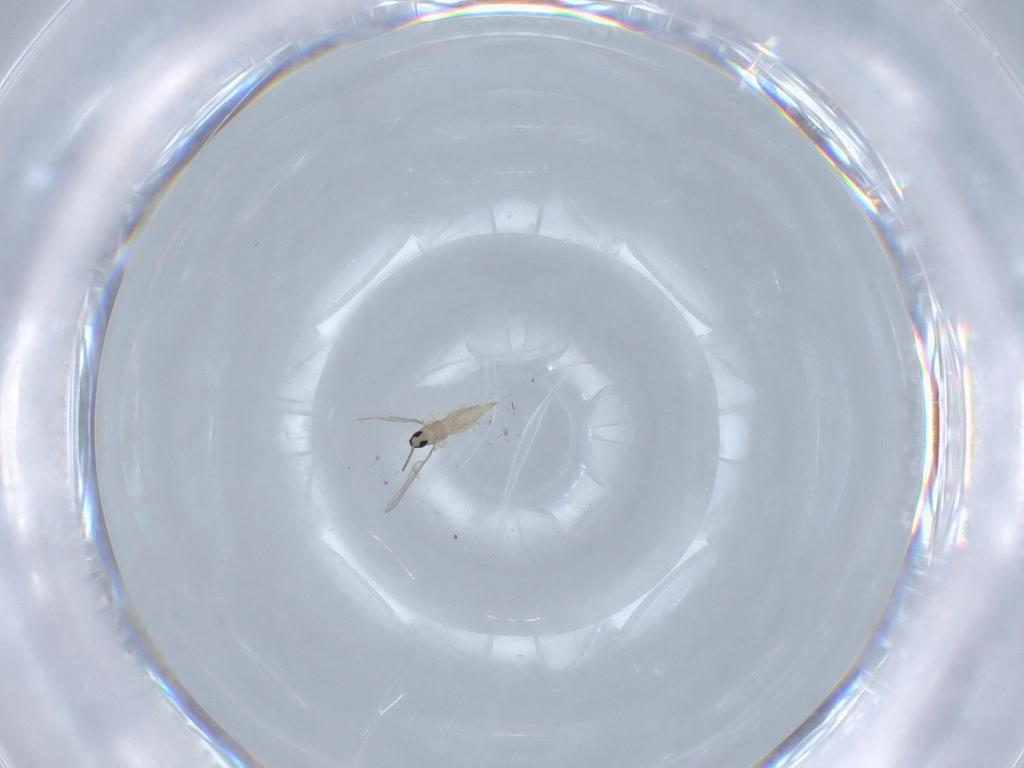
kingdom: Animalia
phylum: Arthropoda
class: Insecta
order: Diptera
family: Cecidomyiidae
